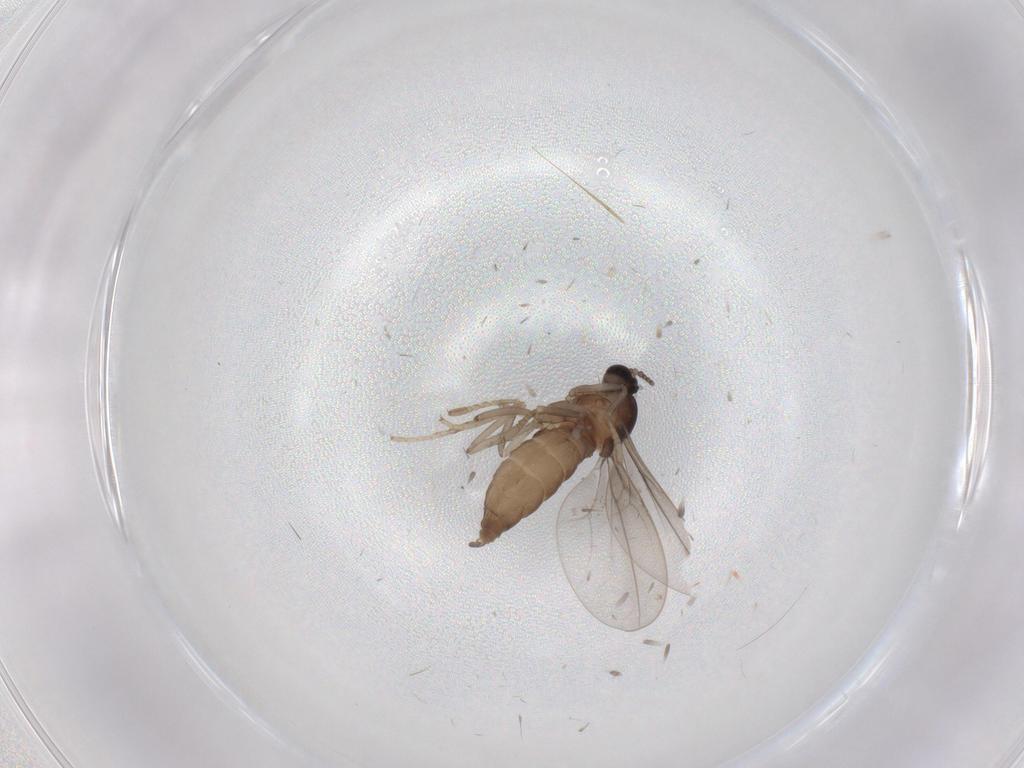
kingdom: Animalia
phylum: Arthropoda
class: Insecta
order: Diptera
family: Cecidomyiidae
